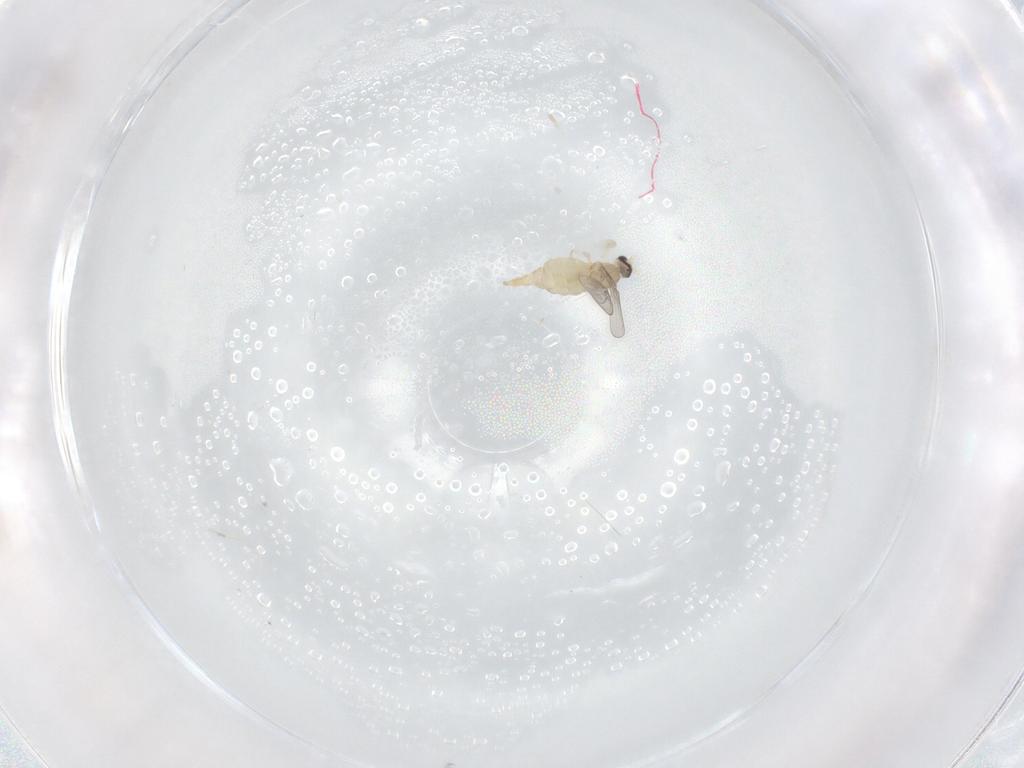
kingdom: Animalia
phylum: Arthropoda
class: Insecta
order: Diptera
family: Cecidomyiidae
